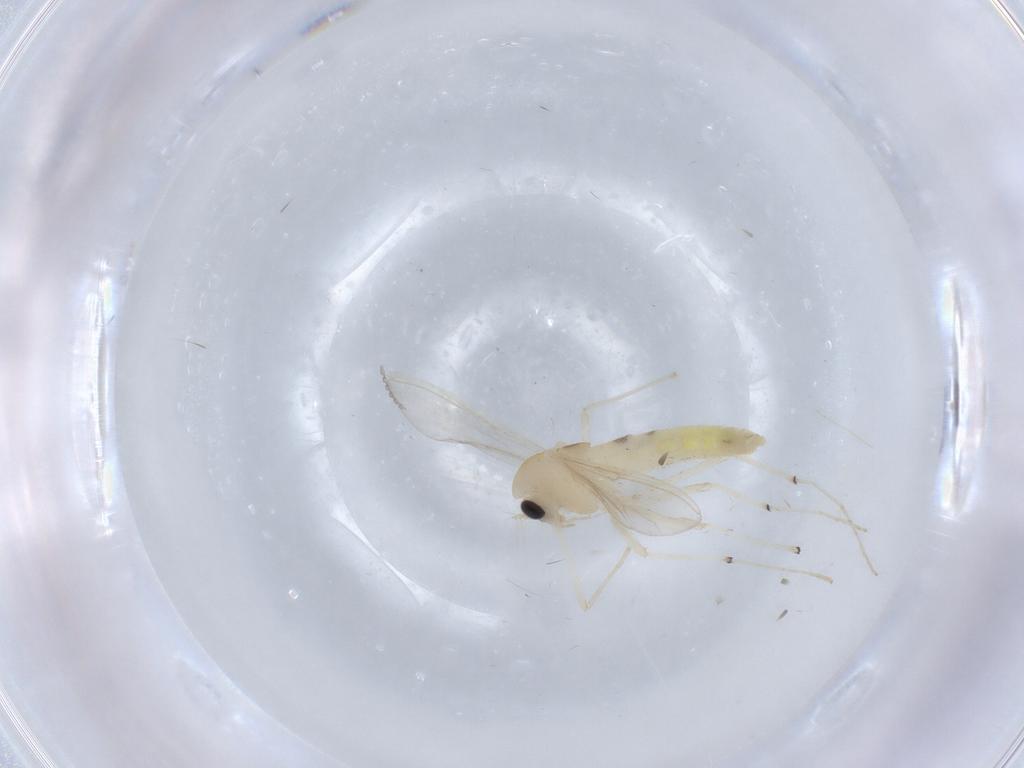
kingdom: Animalia
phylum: Arthropoda
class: Insecta
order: Diptera
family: Chironomidae
